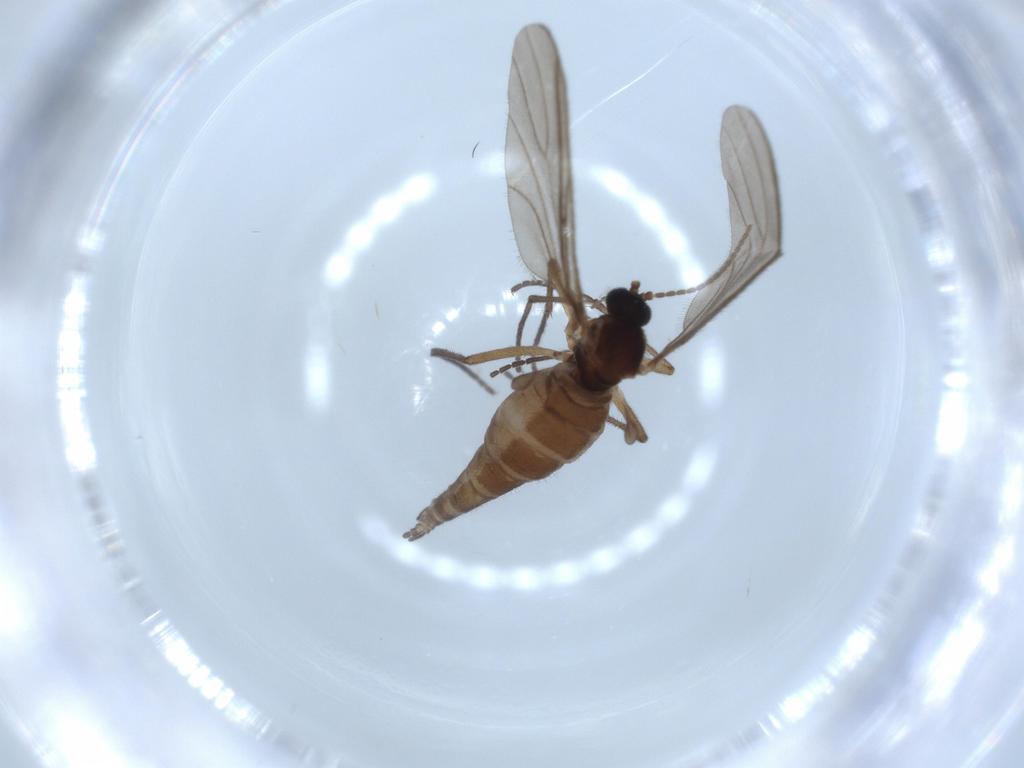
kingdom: Animalia
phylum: Arthropoda
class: Insecta
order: Diptera
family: Sciaridae
